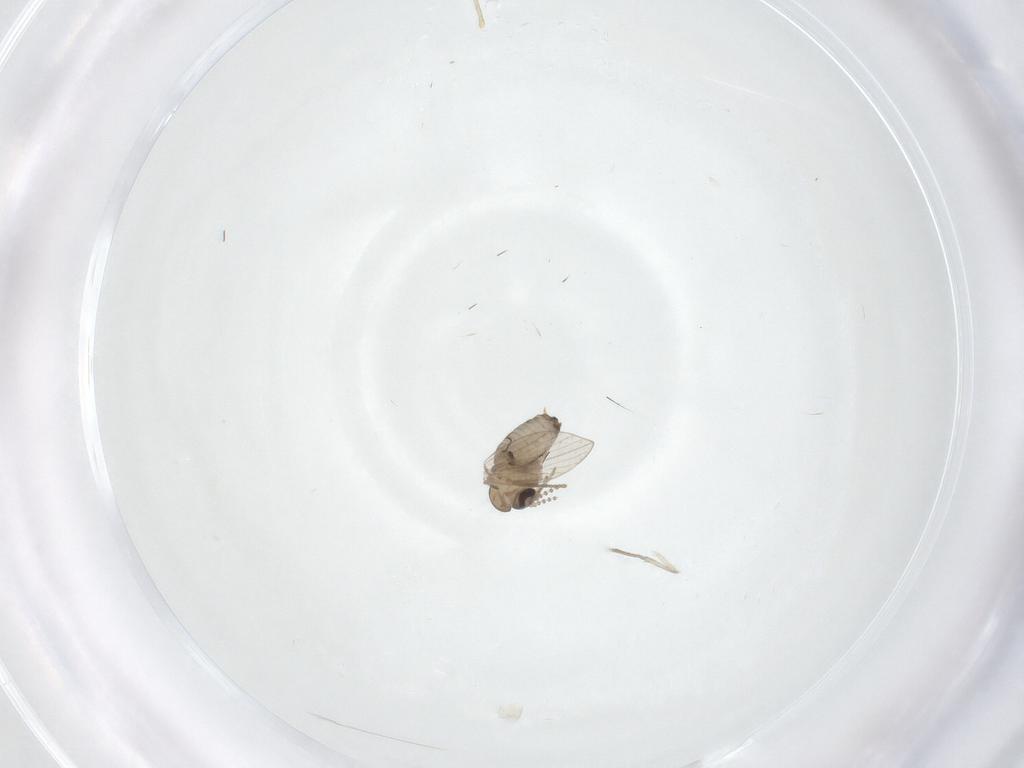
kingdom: Animalia
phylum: Arthropoda
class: Insecta
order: Diptera
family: Psychodidae
